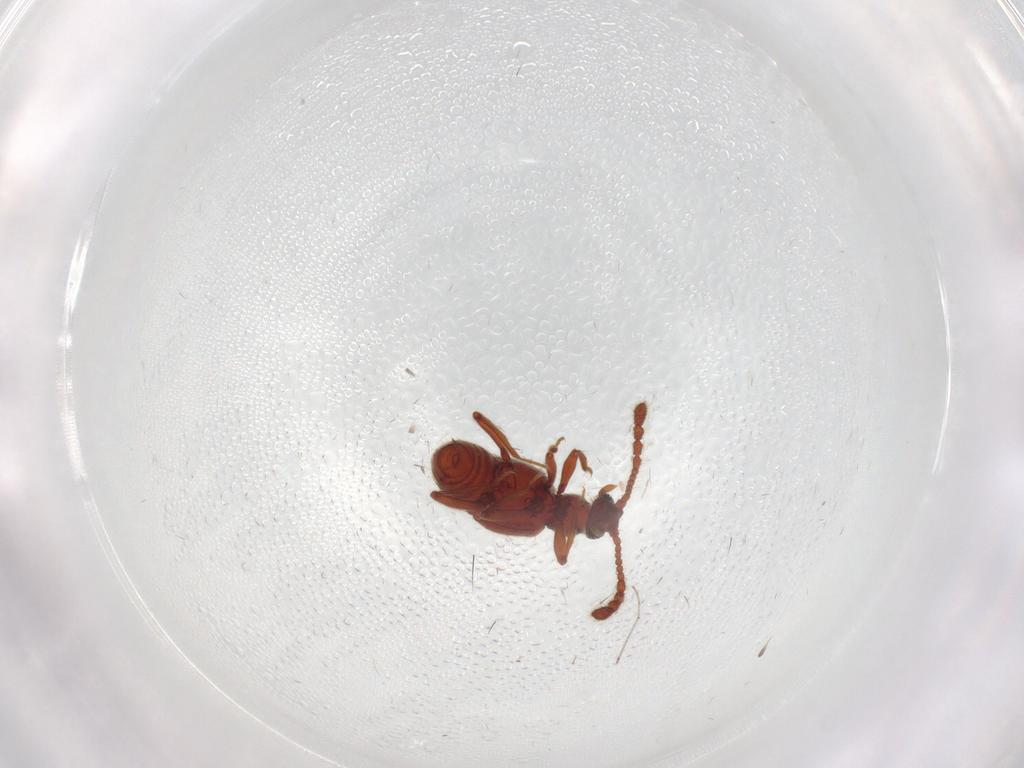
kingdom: Animalia
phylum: Arthropoda
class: Insecta
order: Coleoptera
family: Staphylinidae
